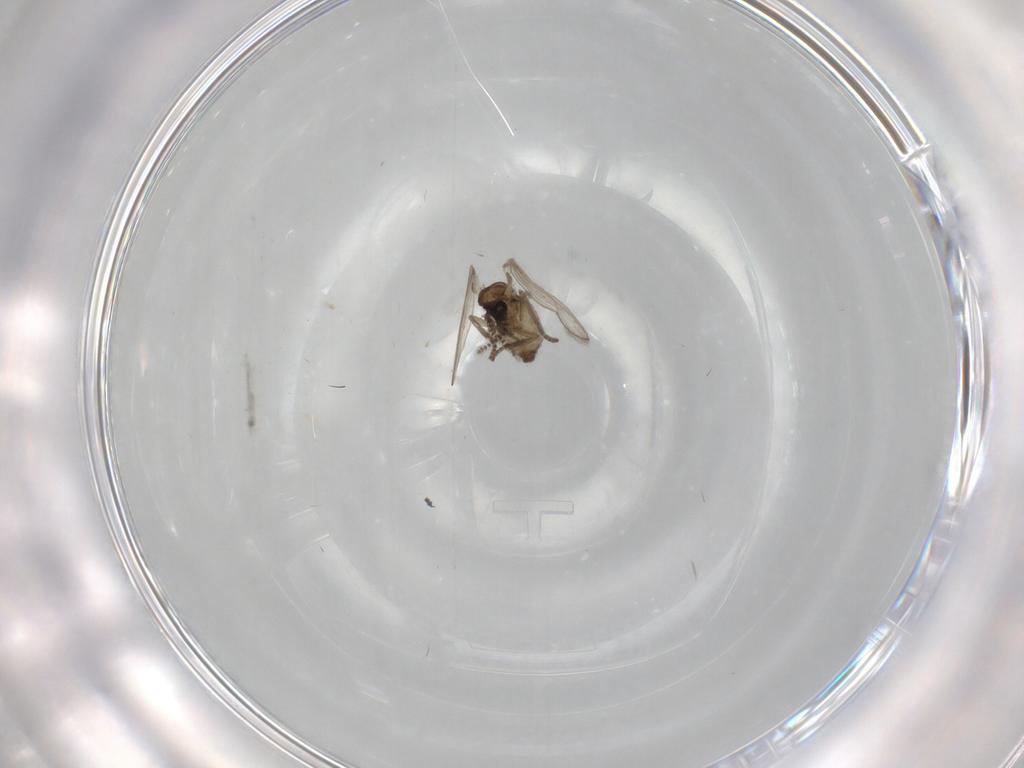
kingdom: Animalia
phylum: Arthropoda
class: Insecta
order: Diptera
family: Psychodidae
